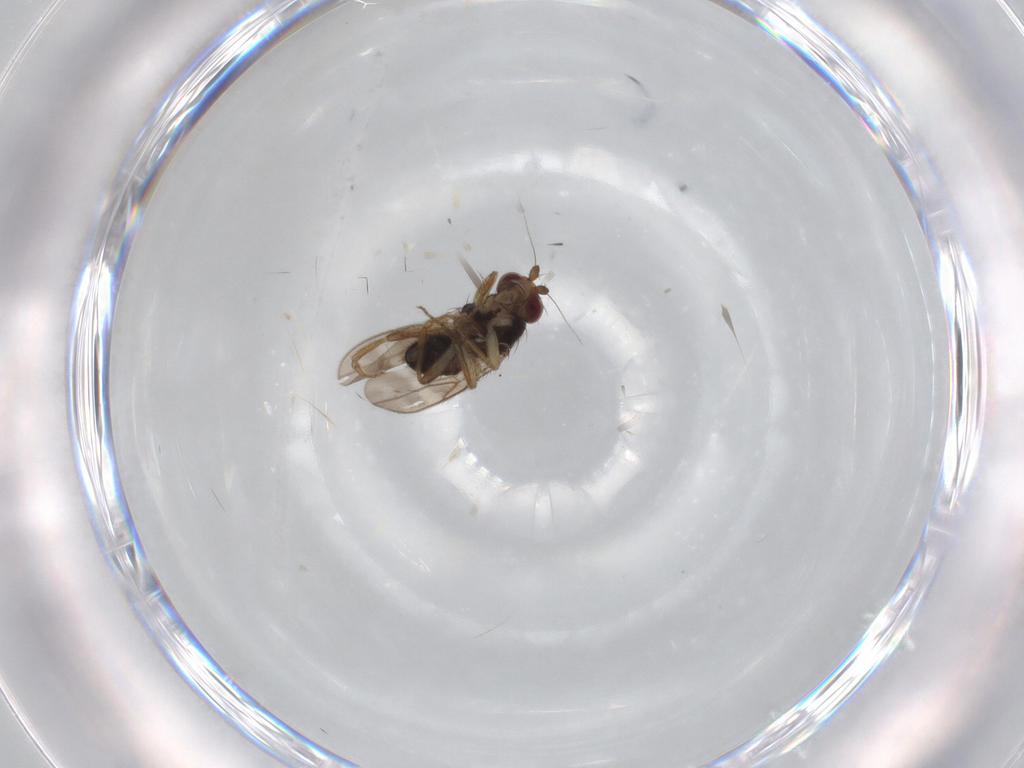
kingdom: Animalia
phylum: Arthropoda
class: Insecta
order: Diptera
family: Sphaeroceridae
